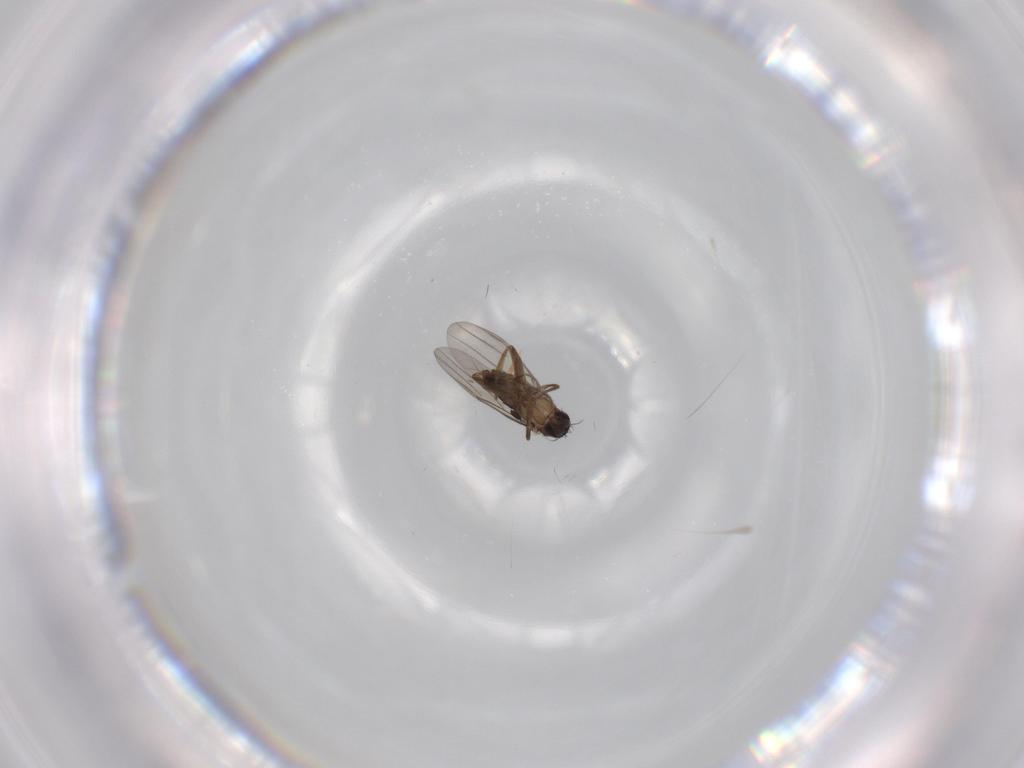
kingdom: Animalia
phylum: Arthropoda
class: Insecta
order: Diptera
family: Phoridae
